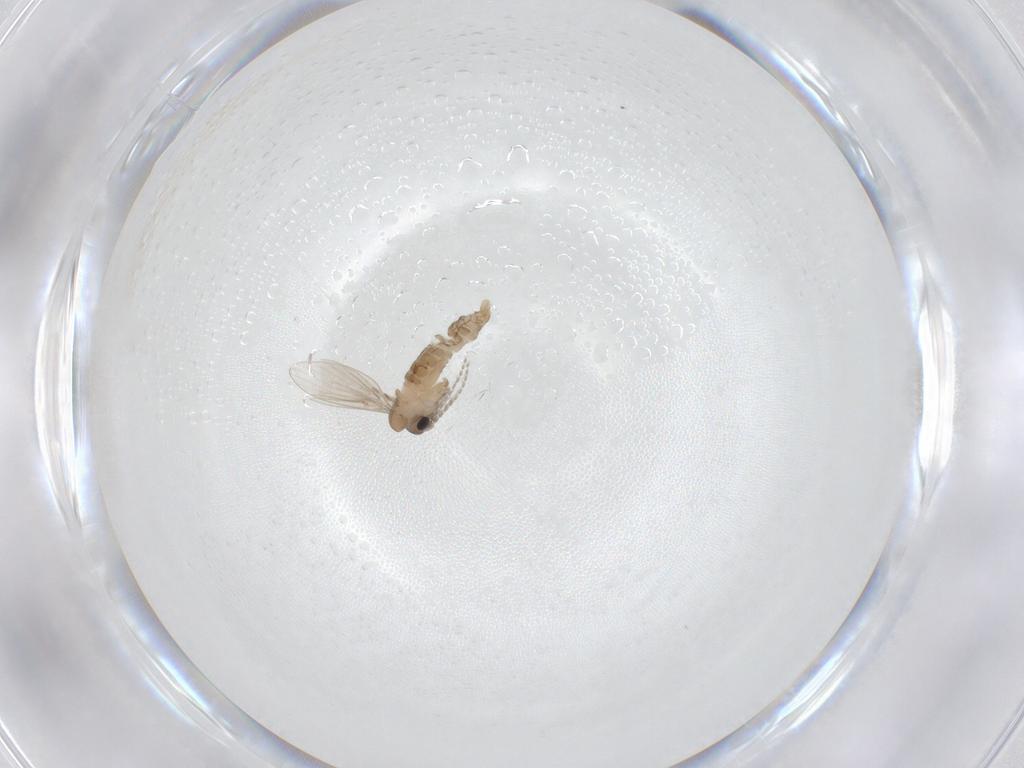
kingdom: Animalia
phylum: Arthropoda
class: Insecta
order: Diptera
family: Psychodidae
